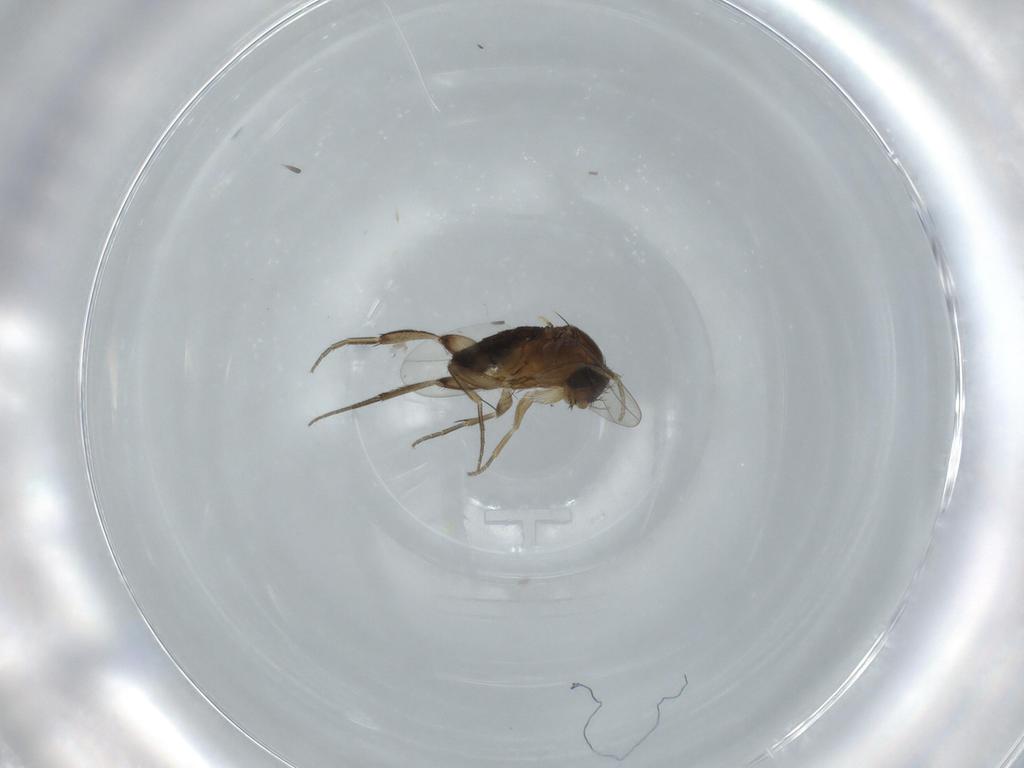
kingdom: Animalia
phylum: Arthropoda
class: Insecta
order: Diptera
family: Phoridae
